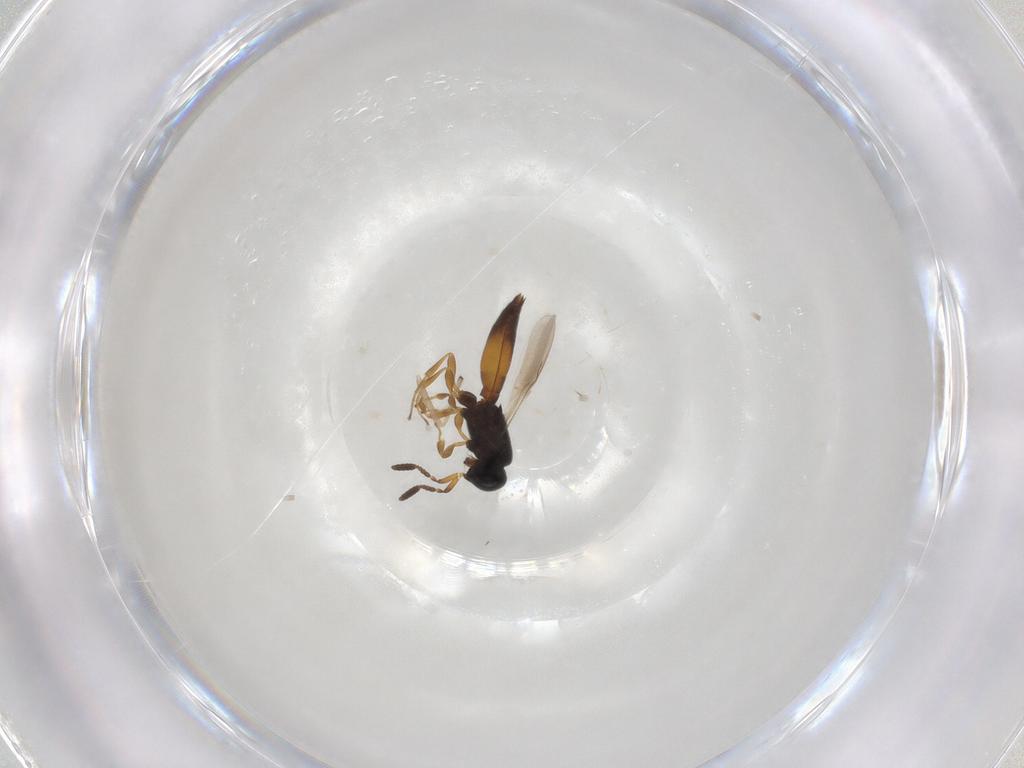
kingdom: Animalia
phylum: Arthropoda
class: Insecta
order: Hymenoptera
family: Scelionidae
